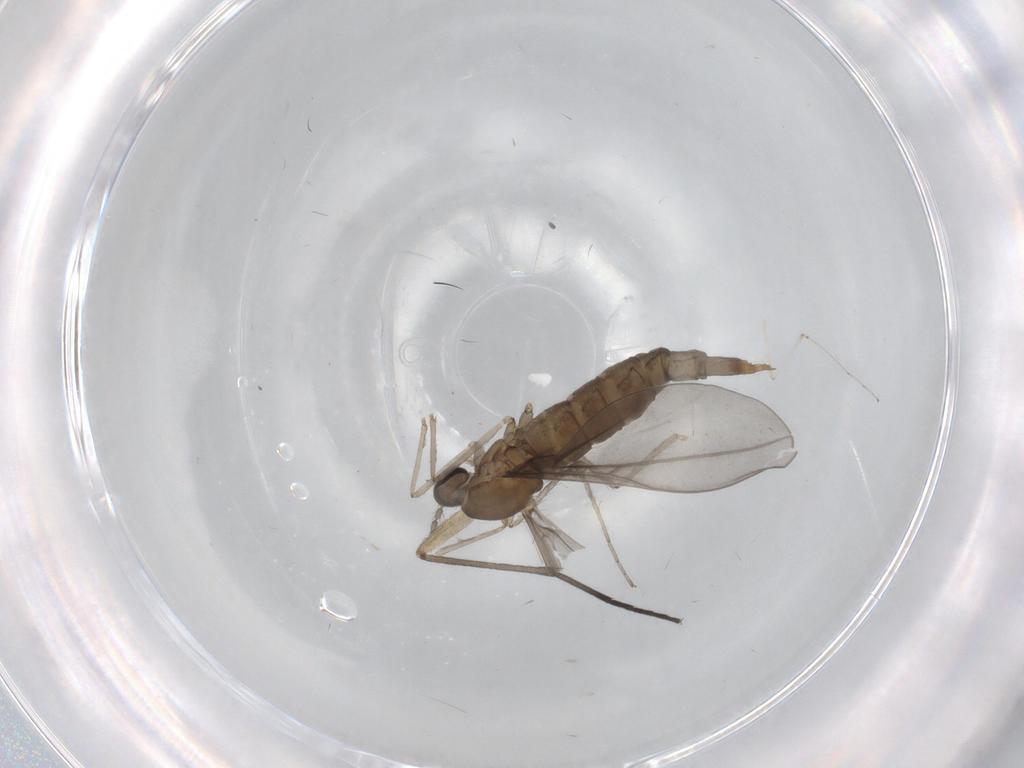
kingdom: Animalia
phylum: Arthropoda
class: Insecta
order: Diptera
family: Cecidomyiidae
